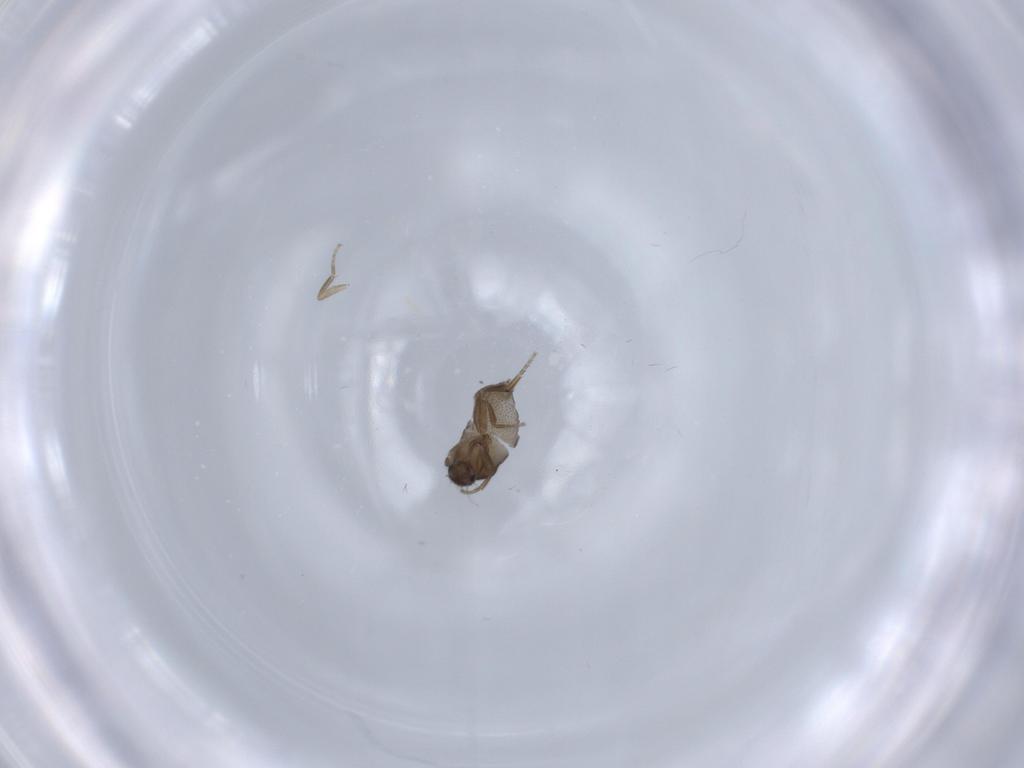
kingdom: Animalia
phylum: Arthropoda
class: Insecta
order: Diptera
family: Phoridae
